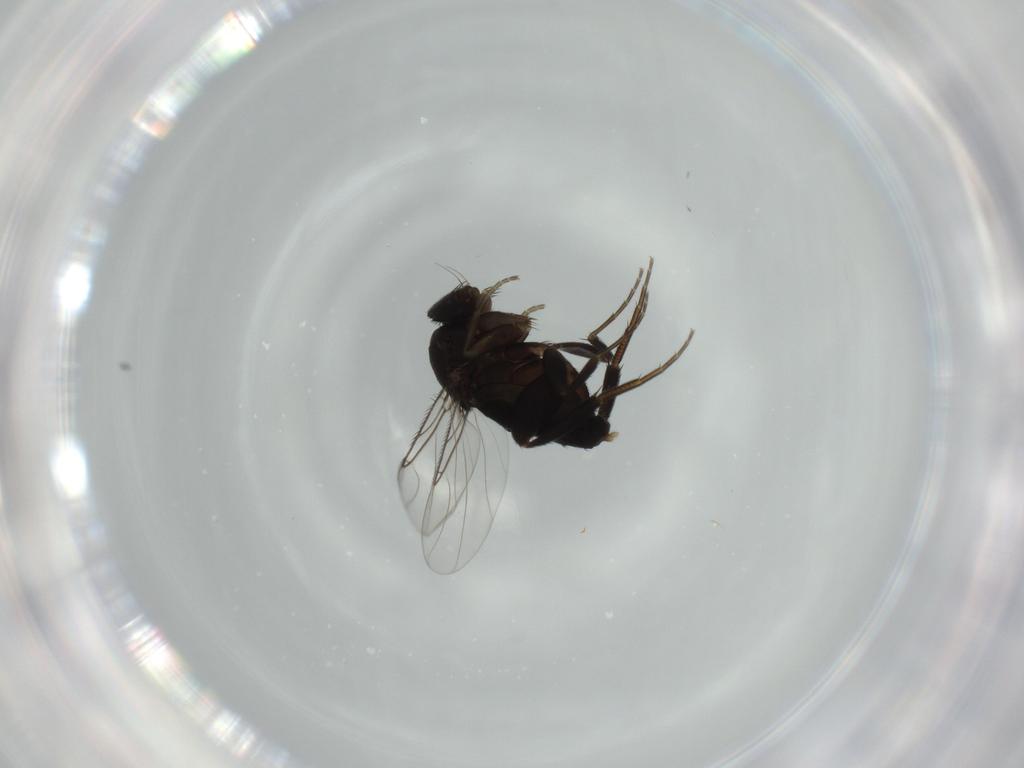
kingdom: Animalia
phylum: Arthropoda
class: Insecta
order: Diptera
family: Phoridae
